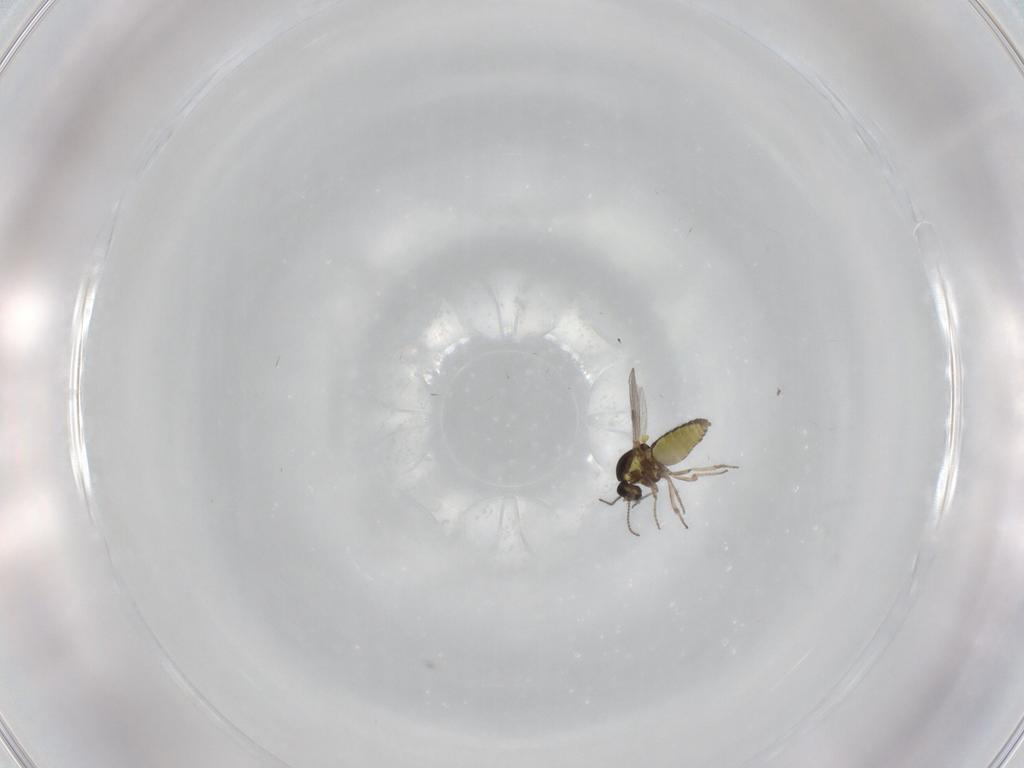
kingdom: Animalia
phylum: Arthropoda
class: Insecta
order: Diptera
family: Ceratopogonidae
